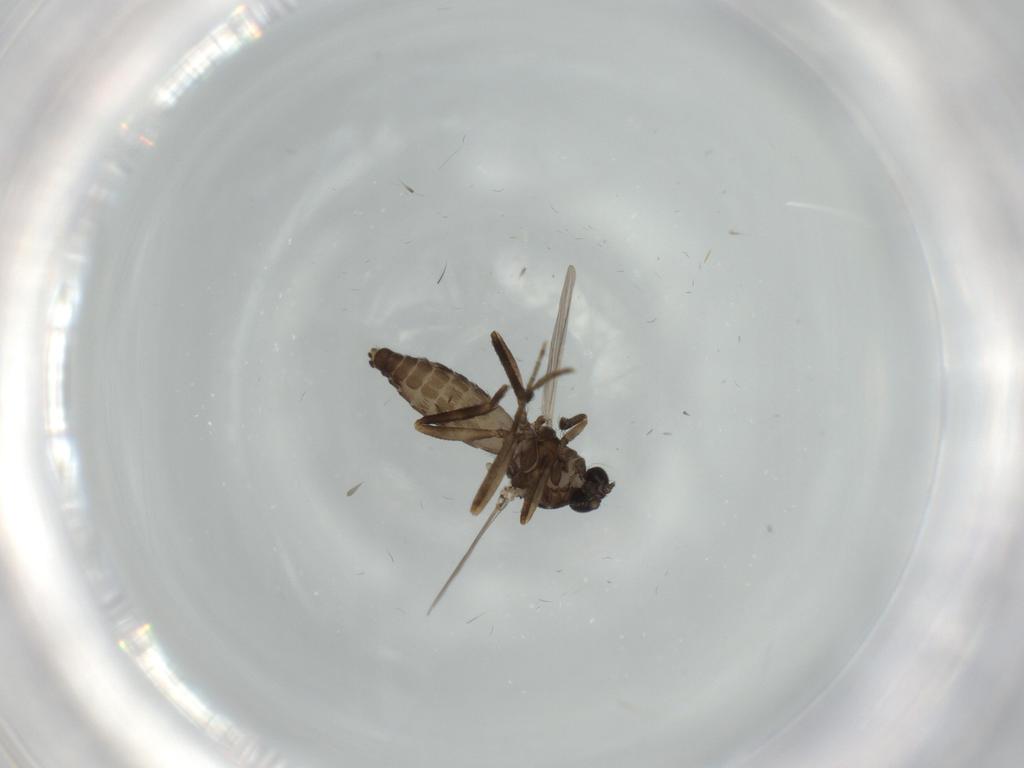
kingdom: Animalia
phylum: Arthropoda
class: Insecta
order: Diptera
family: Ceratopogonidae
